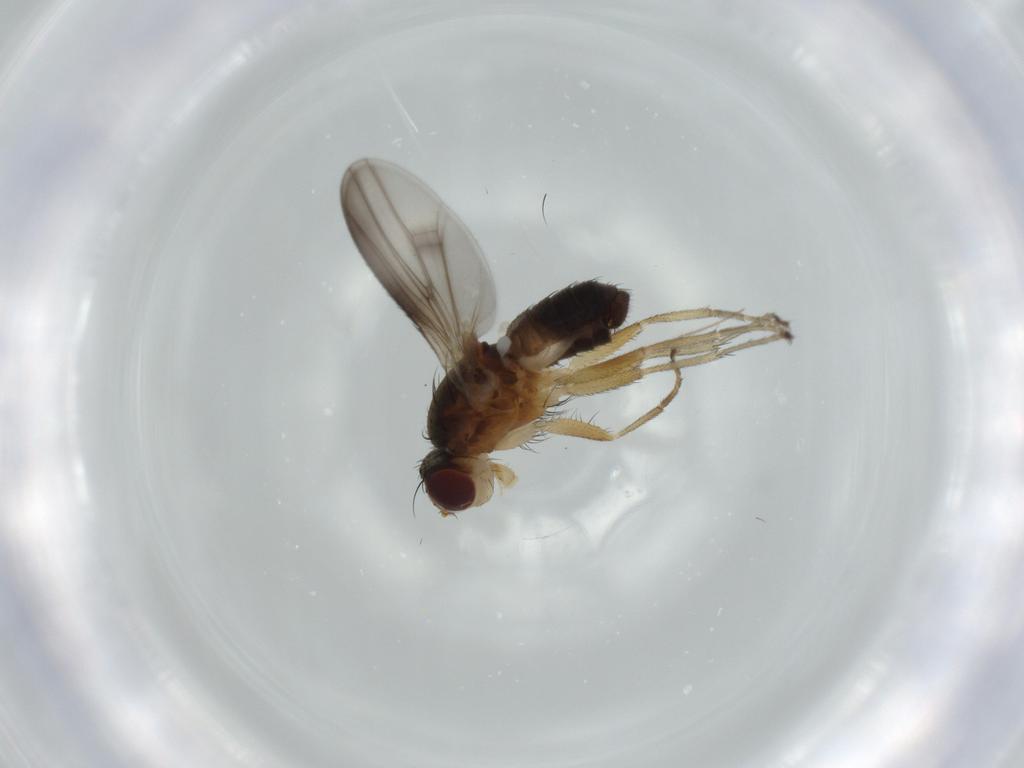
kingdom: Animalia
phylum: Arthropoda
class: Insecta
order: Diptera
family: Heleomyzidae
